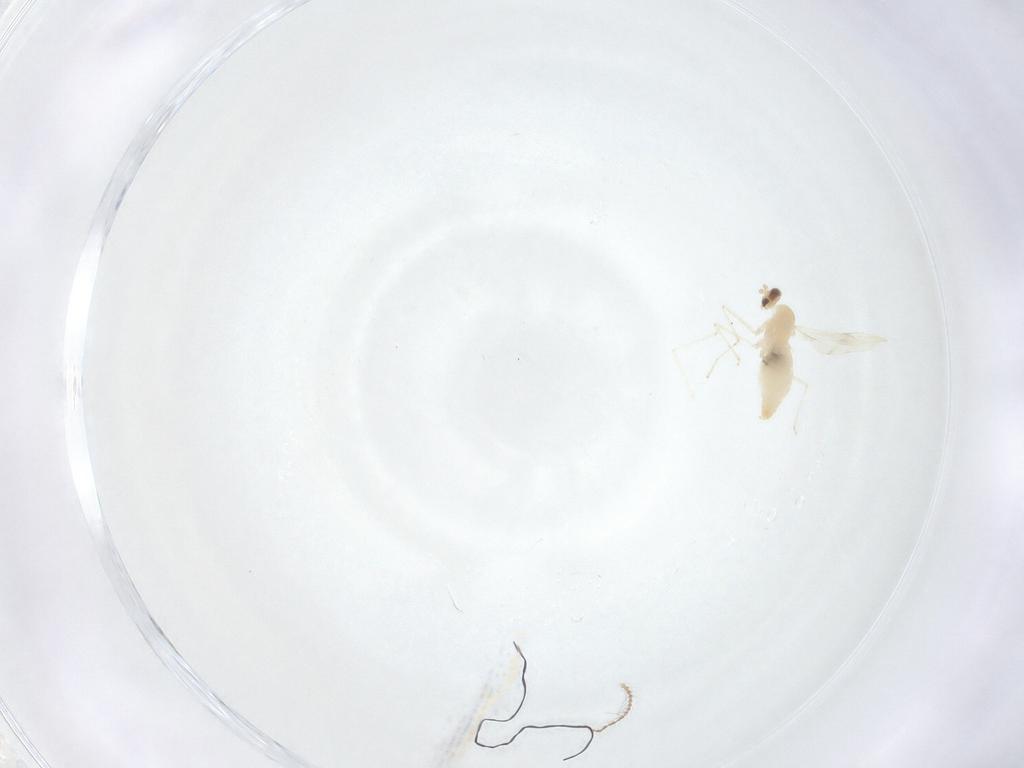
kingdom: Animalia
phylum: Arthropoda
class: Insecta
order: Diptera
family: Cecidomyiidae
